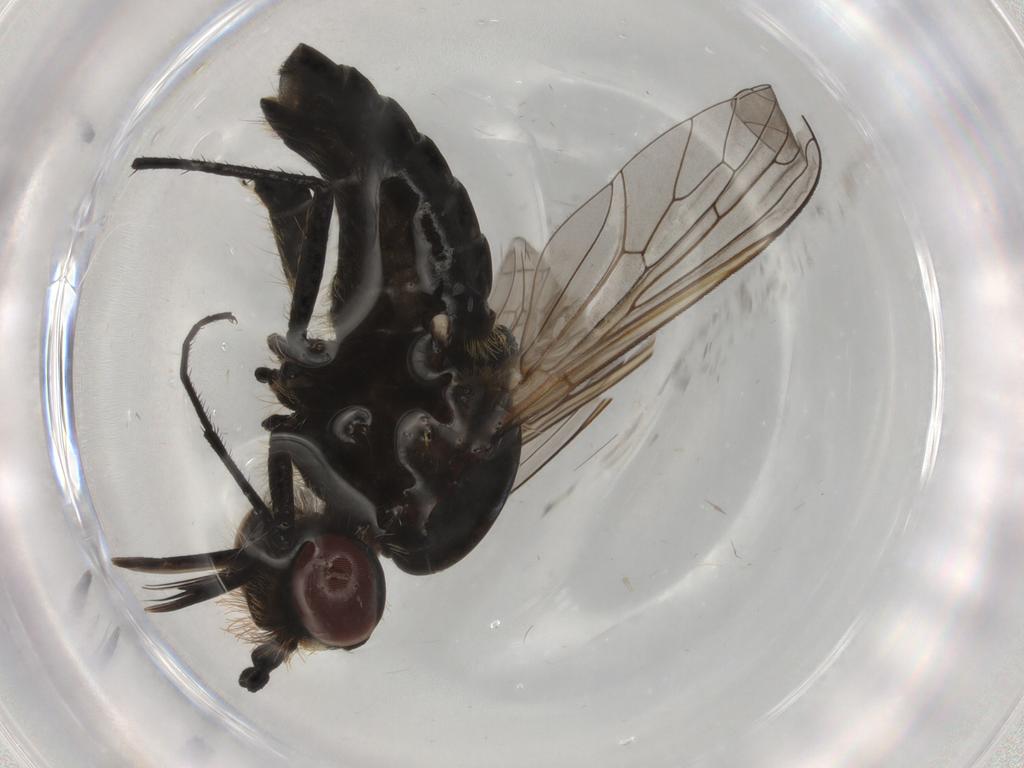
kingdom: Animalia
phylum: Arthropoda
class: Insecta
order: Diptera
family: Bombyliidae
